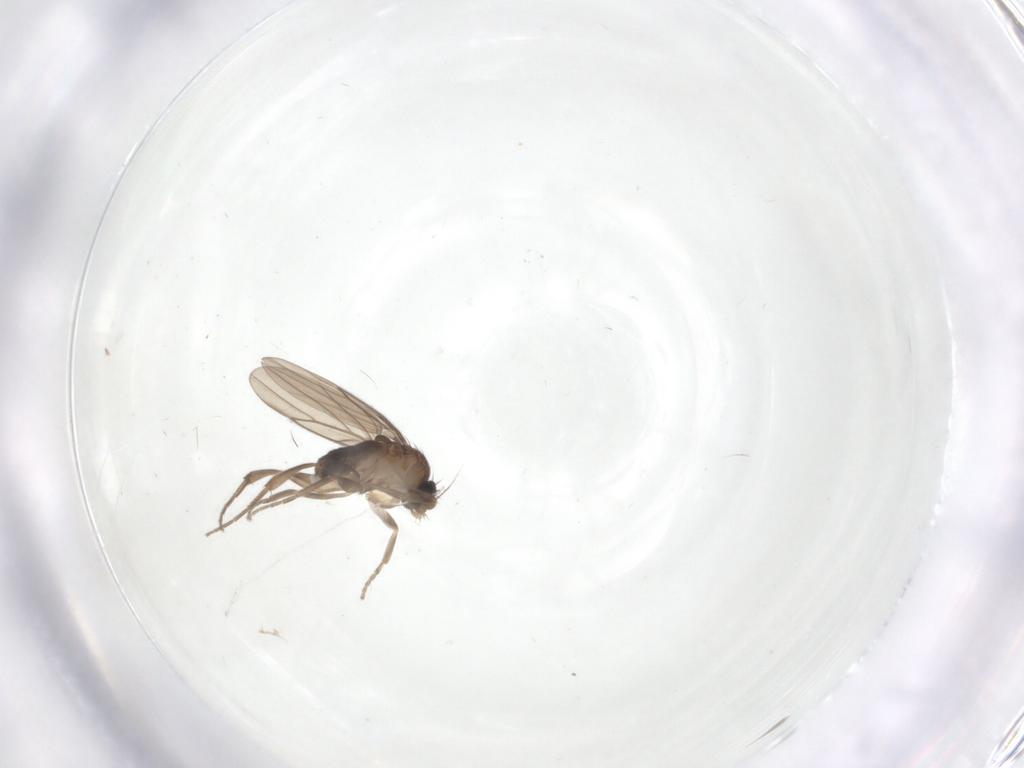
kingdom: Animalia
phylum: Arthropoda
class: Insecta
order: Diptera
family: Phoridae
